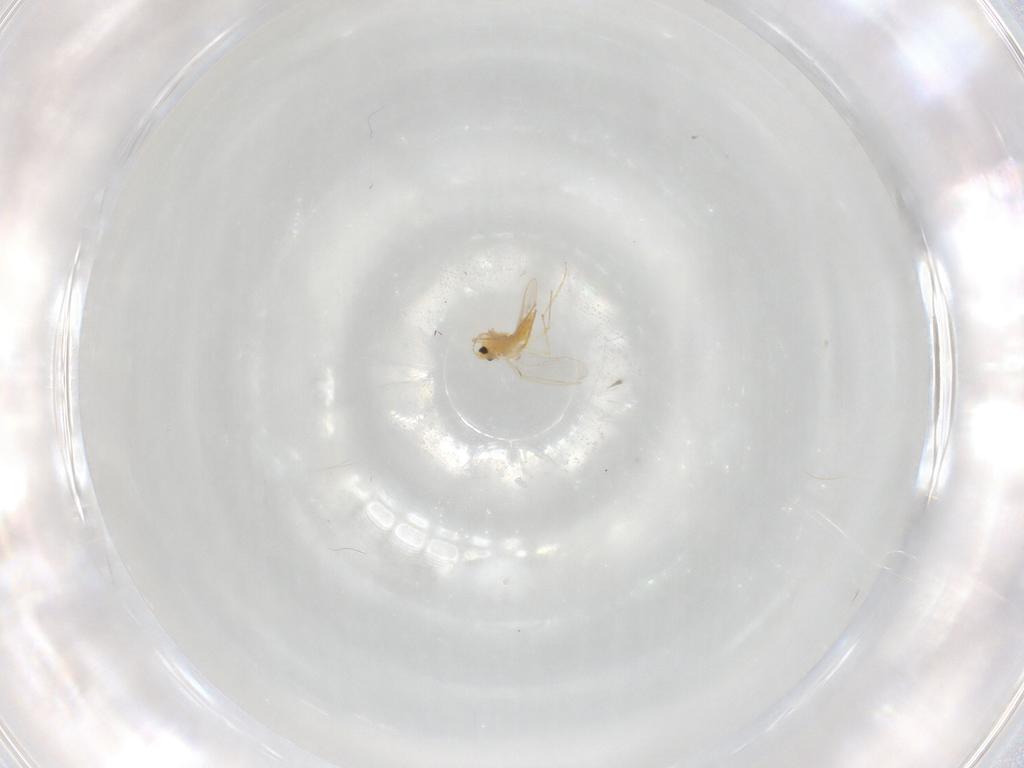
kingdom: Animalia
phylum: Arthropoda
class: Insecta
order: Diptera
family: Chironomidae
